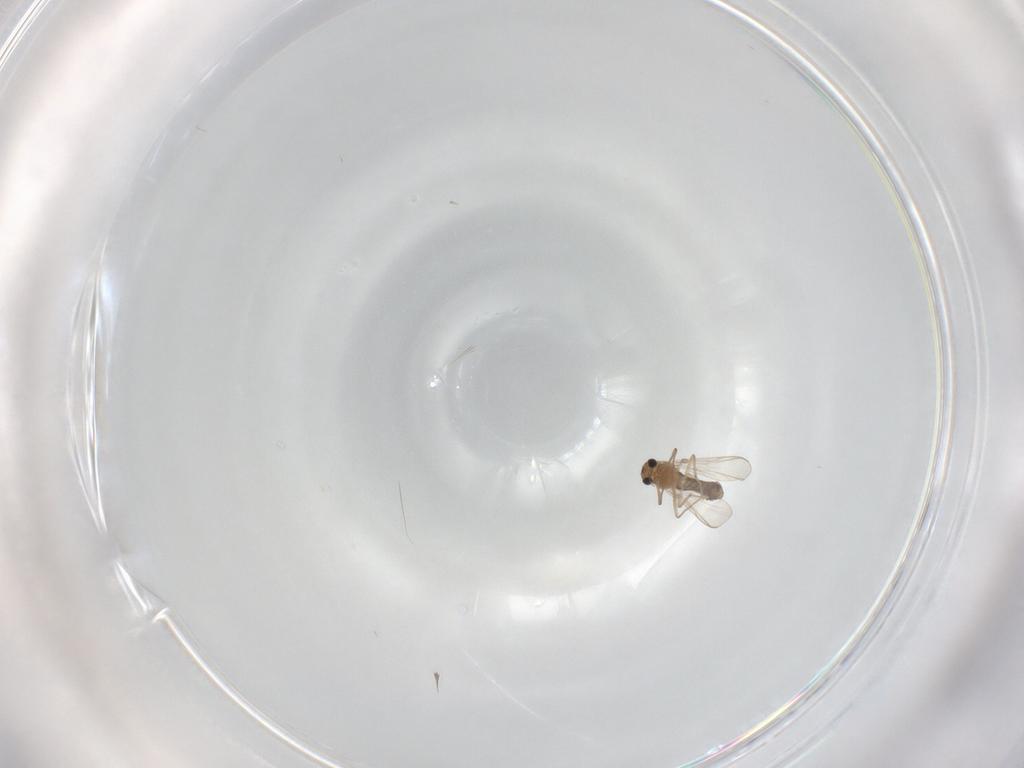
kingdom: Animalia
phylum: Arthropoda
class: Insecta
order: Diptera
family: Chironomidae
